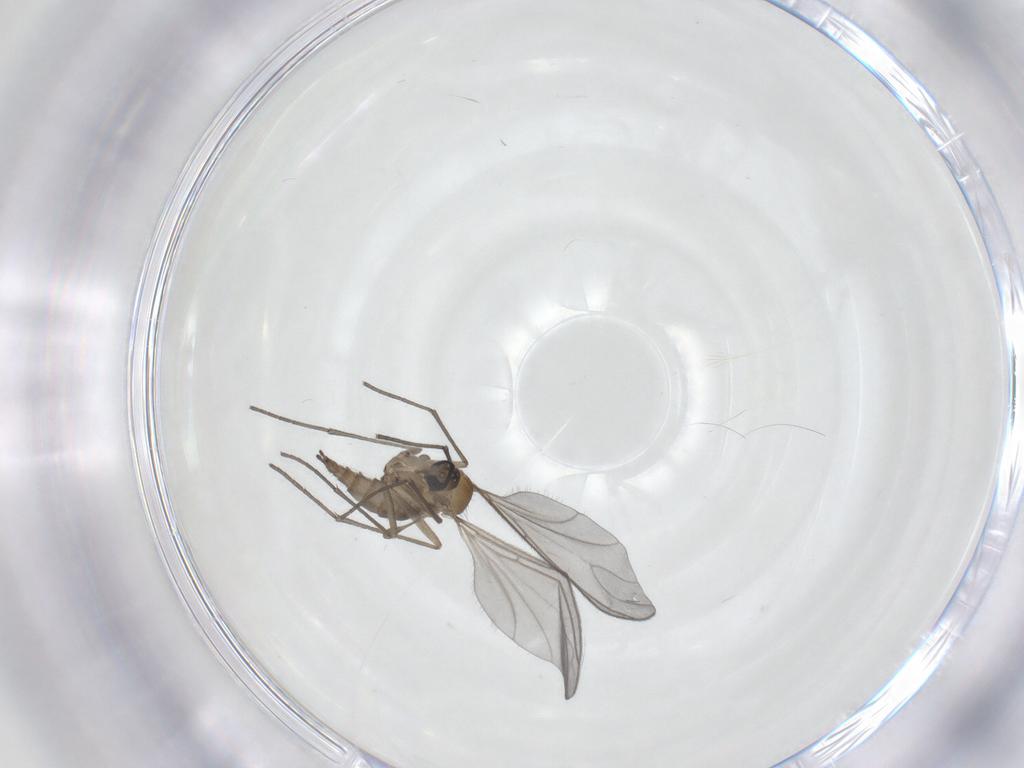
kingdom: Animalia
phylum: Arthropoda
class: Insecta
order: Diptera
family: Sciaridae
